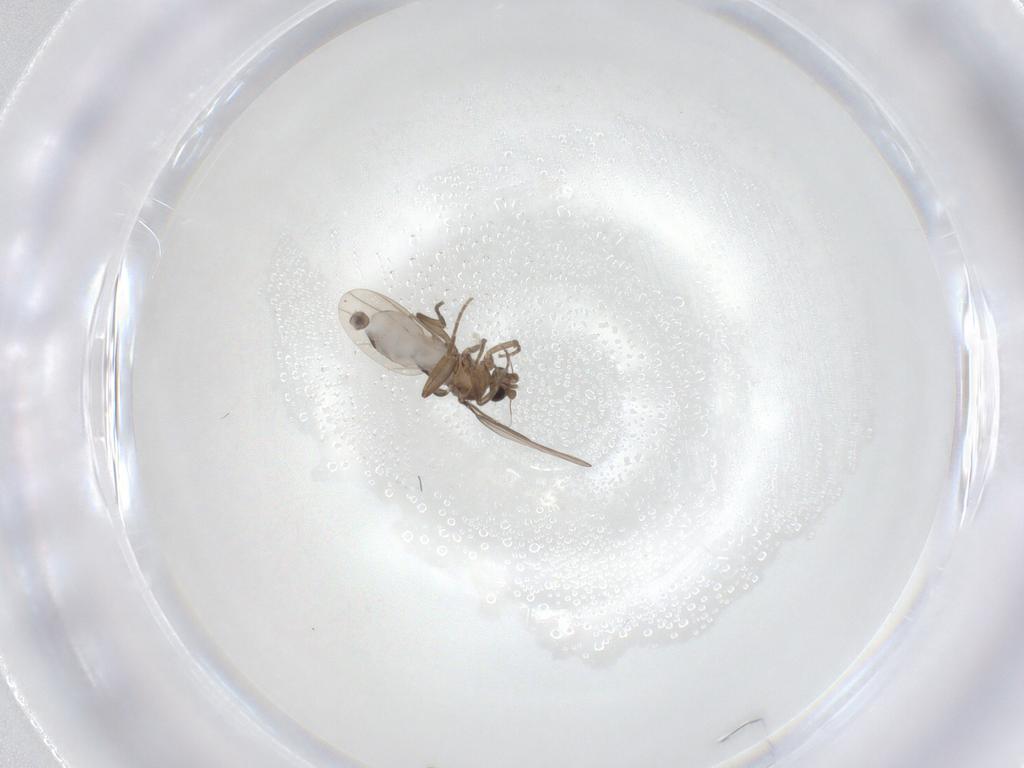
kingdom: Animalia
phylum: Arthropoda
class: Insecta
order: Diptera
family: Phoridae
